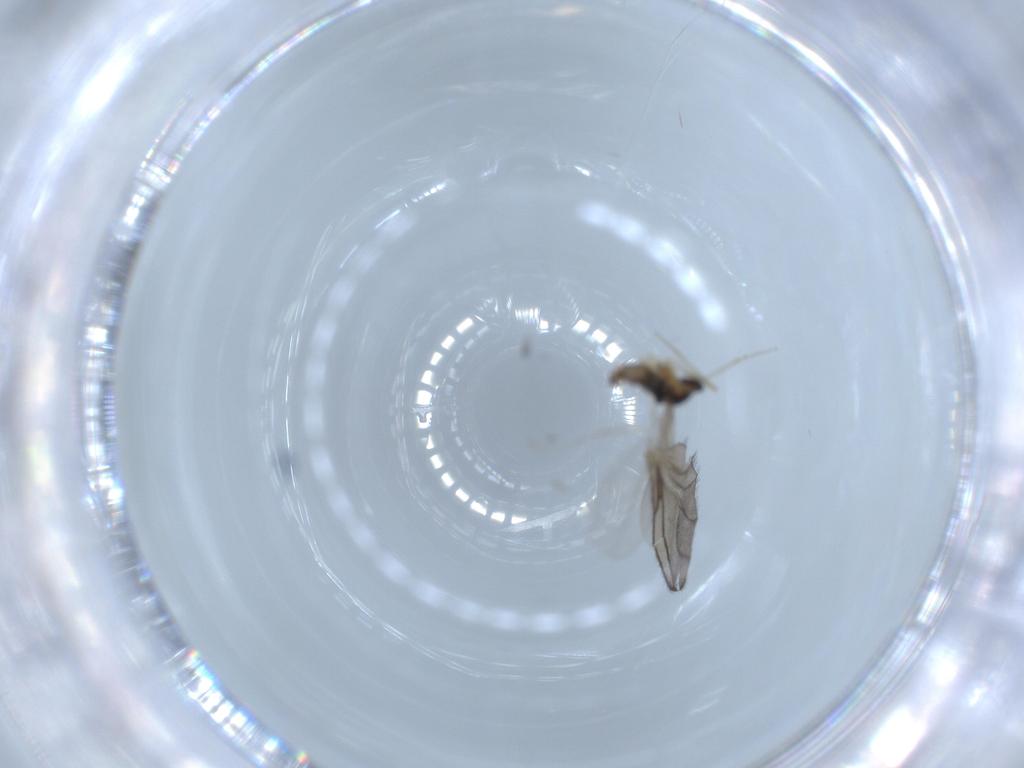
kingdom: Animalia
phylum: Arthropoda
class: Insecta
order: Diptera
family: Cecidomyiidae
